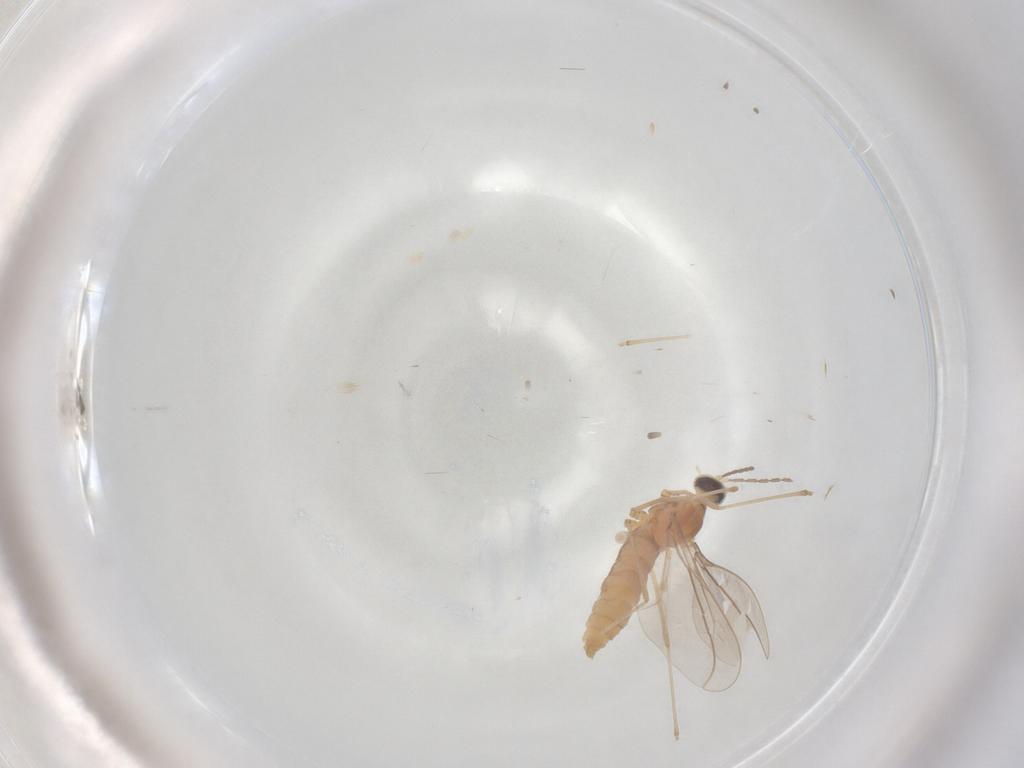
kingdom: Animalia
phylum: Arthropoda
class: Insecta
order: Diptera
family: Cecidomyiidae
